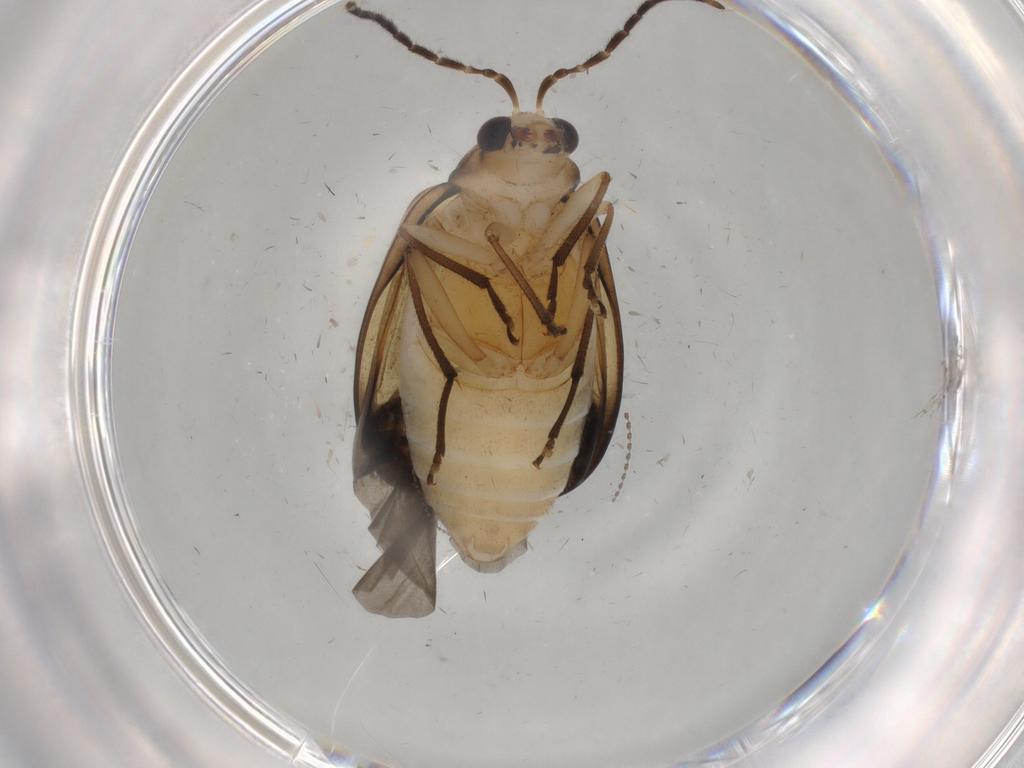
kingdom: Animalia
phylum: Arthropoda
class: Insecta
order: Coleoptera
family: Chrysomelidae
